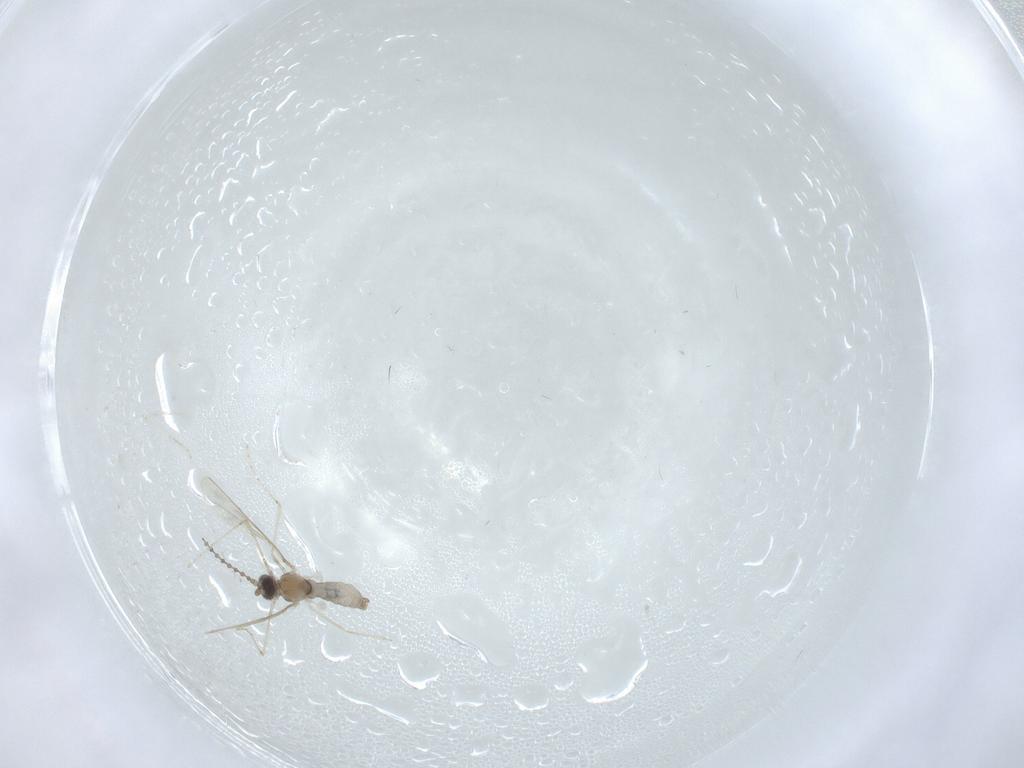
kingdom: Animalia
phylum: Arthropoda
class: Insecta
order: Diptera
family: Cecidomyiidae
